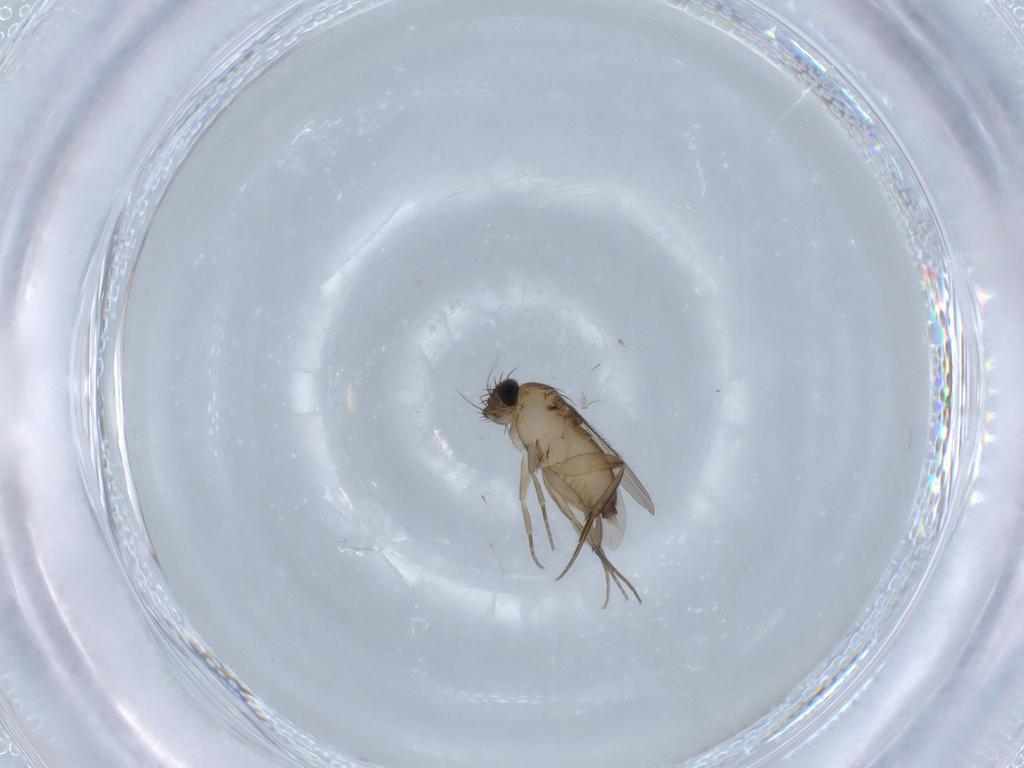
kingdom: Animalia
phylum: Arthropoda
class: Insecta
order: Diptera
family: Phoridae
